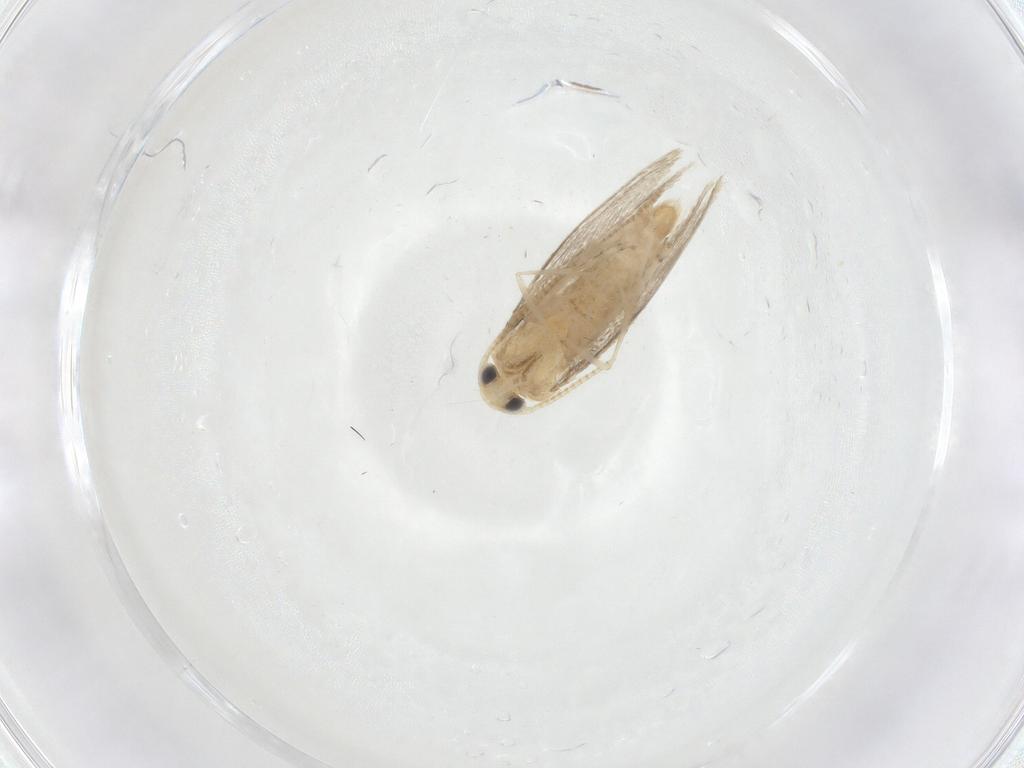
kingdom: Animalia
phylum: Arthropoda
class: Insecta
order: Lepidoptera
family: Gracillariidae
